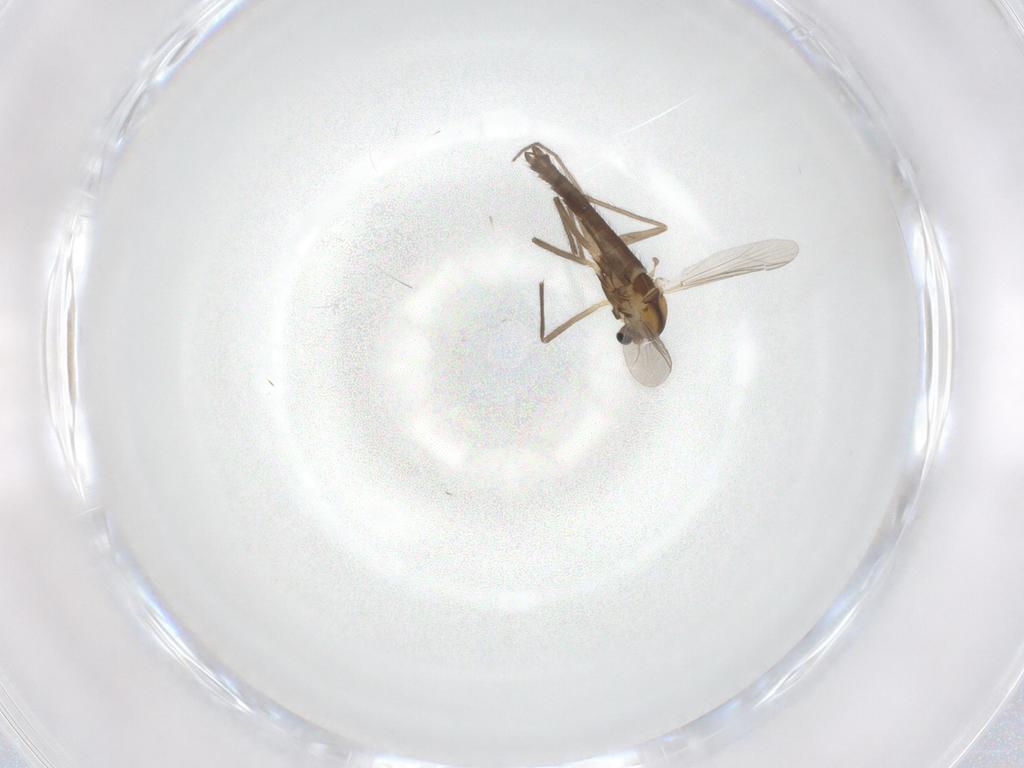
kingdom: Animalia
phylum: Arthropoda
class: Insecta
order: Diptera
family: Chironomidae
